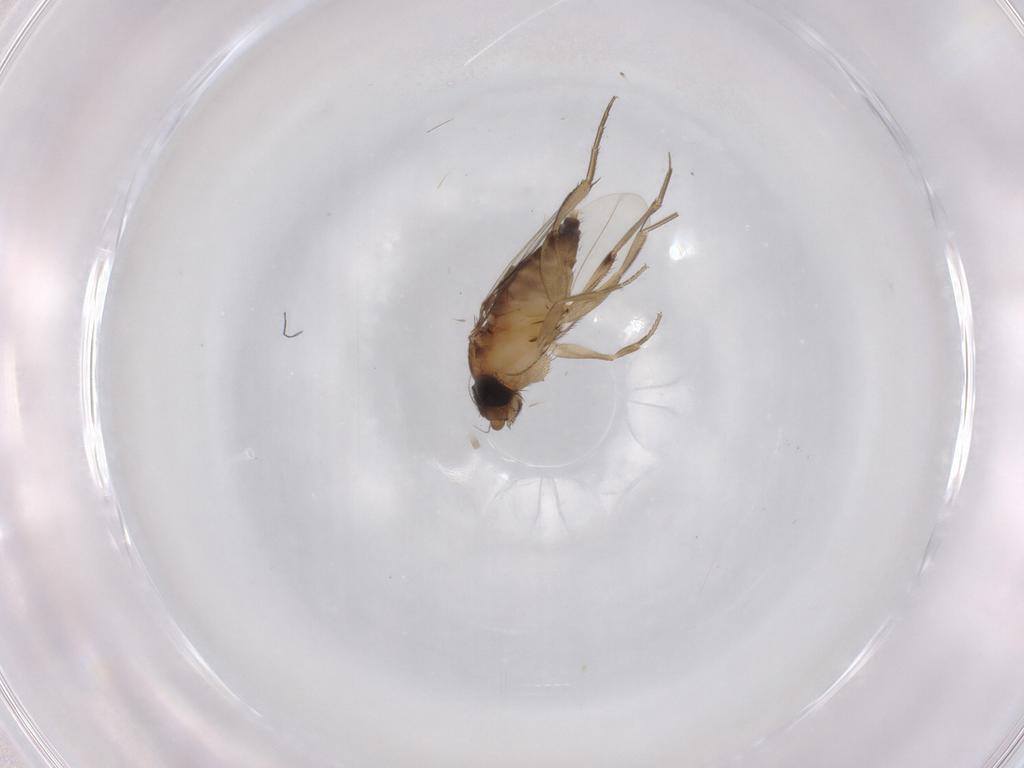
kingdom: Animalia
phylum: Arthropoda
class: Insecta
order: Diptera
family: Phoridae
